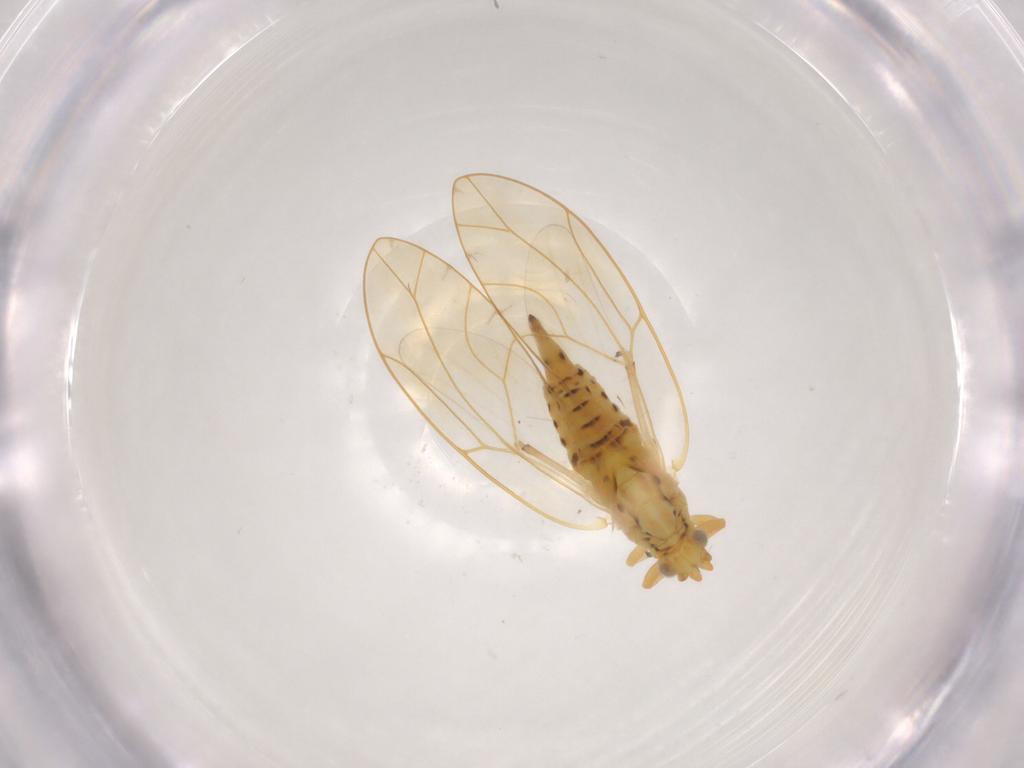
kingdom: Animalia
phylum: Arthropoda
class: Insecta
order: Hemiptera
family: Psylloidea_incertae_sedis
